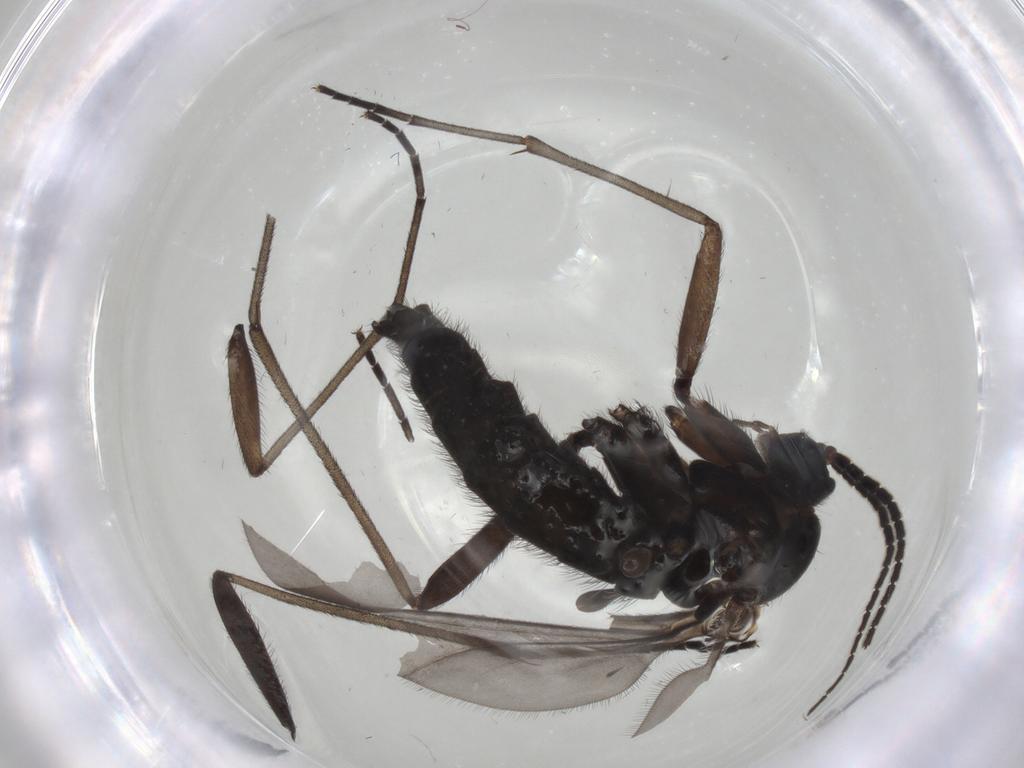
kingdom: Animalia
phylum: Arthropoda
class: Insecta
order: Diptera
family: Sciaridae
